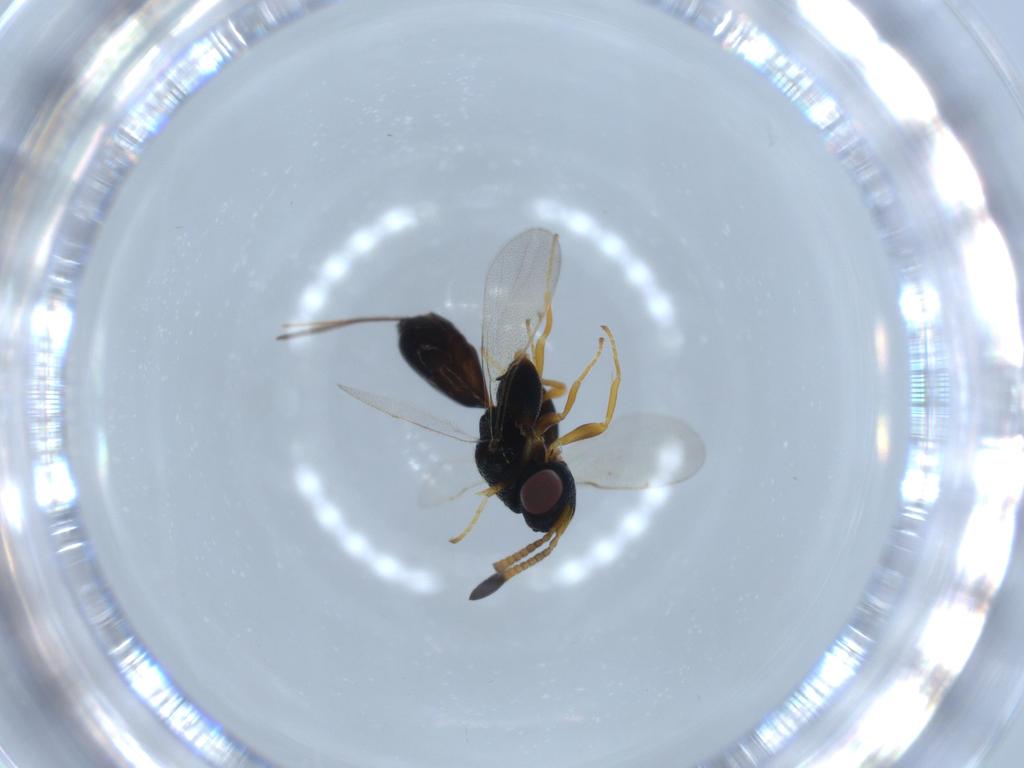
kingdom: Animalia
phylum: Arthropoda
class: Insecta
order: Hymenoptera
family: Torymidae
